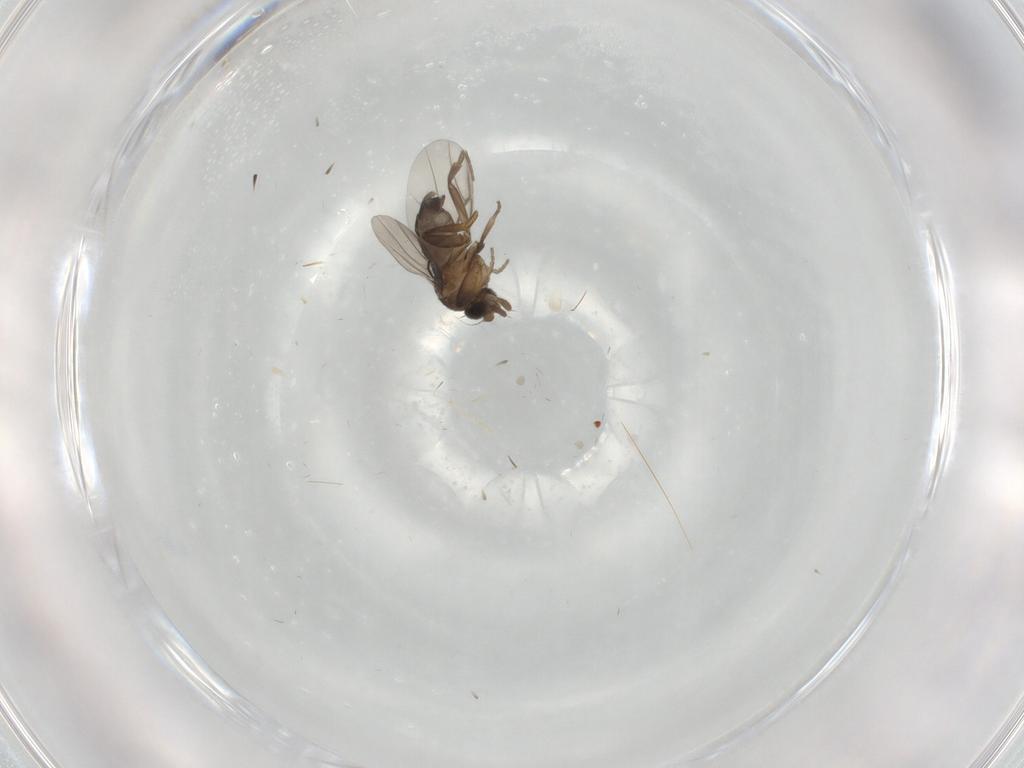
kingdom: Animalia
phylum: Arthropoda
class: Insecta
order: Diptera
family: Phoridae
